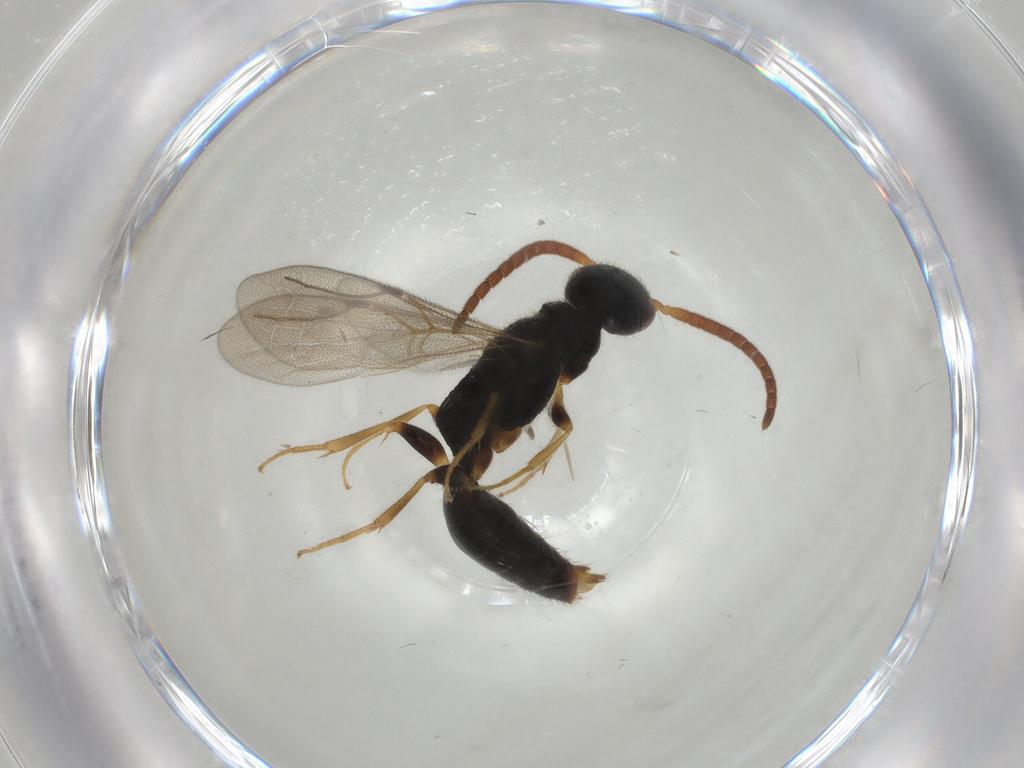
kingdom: Animalia
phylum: Arthropoda
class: Insecta
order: Hymenoptera
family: Bethylidae
